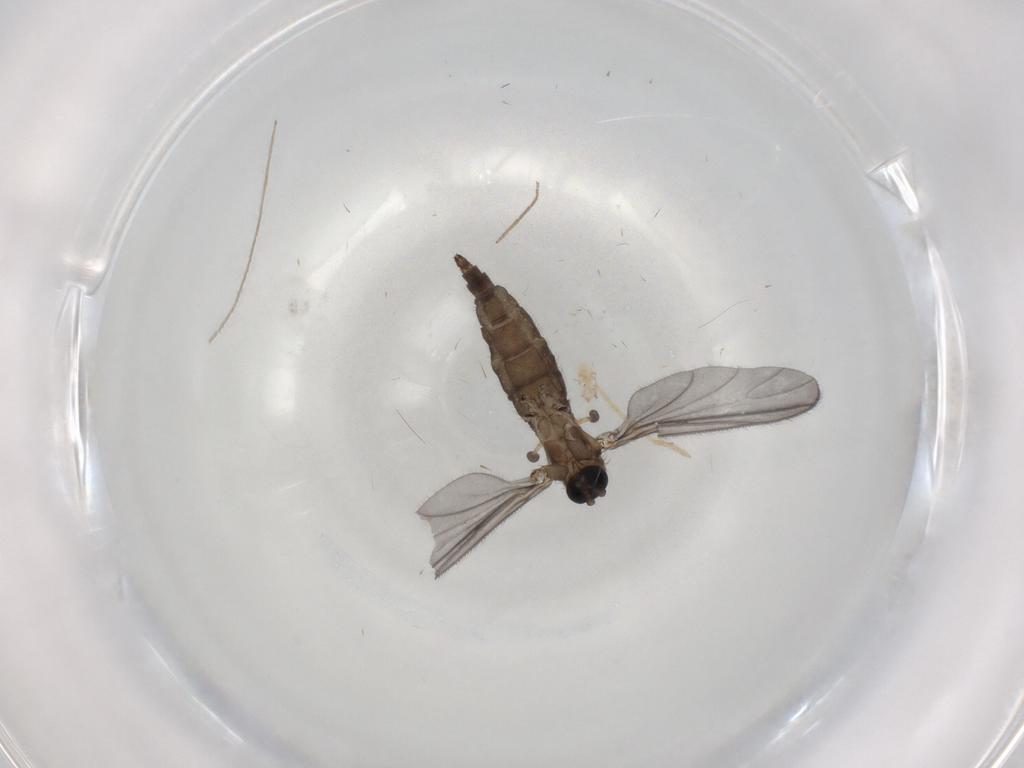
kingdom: Animalia
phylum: Arthropoda
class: Insecta
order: Diptera
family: Sciaridae
